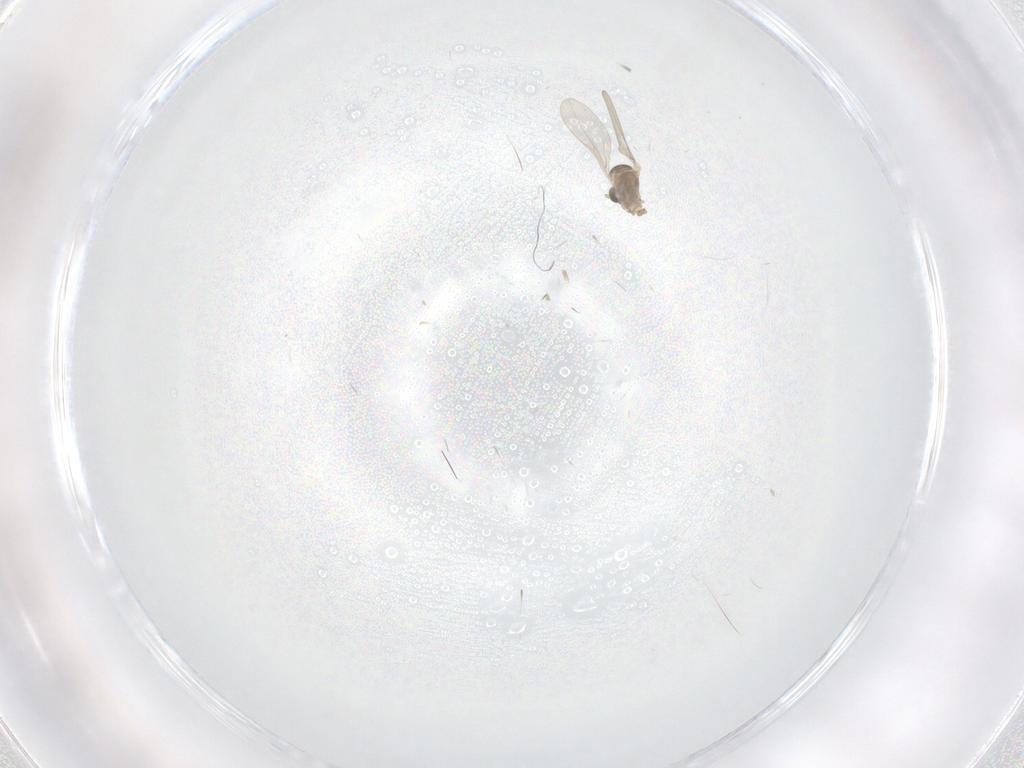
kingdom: Animalia
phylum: Arthropoda
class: Insecta
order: Diptera
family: Cecidomyiidae
